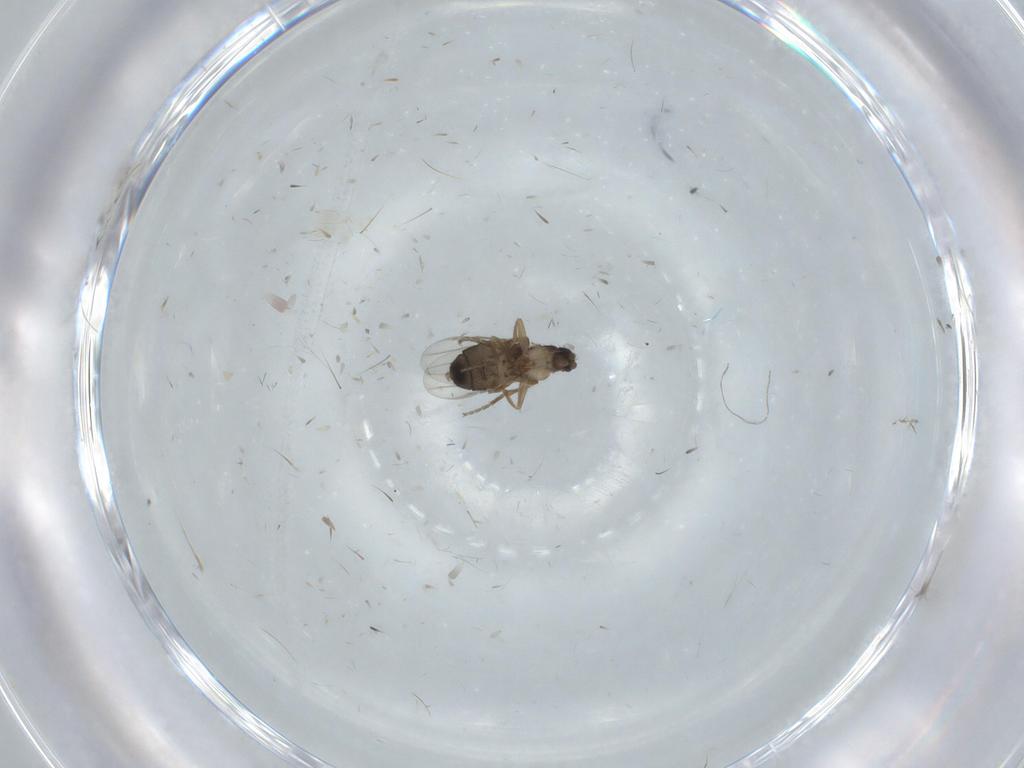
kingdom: Animalia
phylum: Arthropoda
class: Insecta
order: Diptera
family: Phoridae
